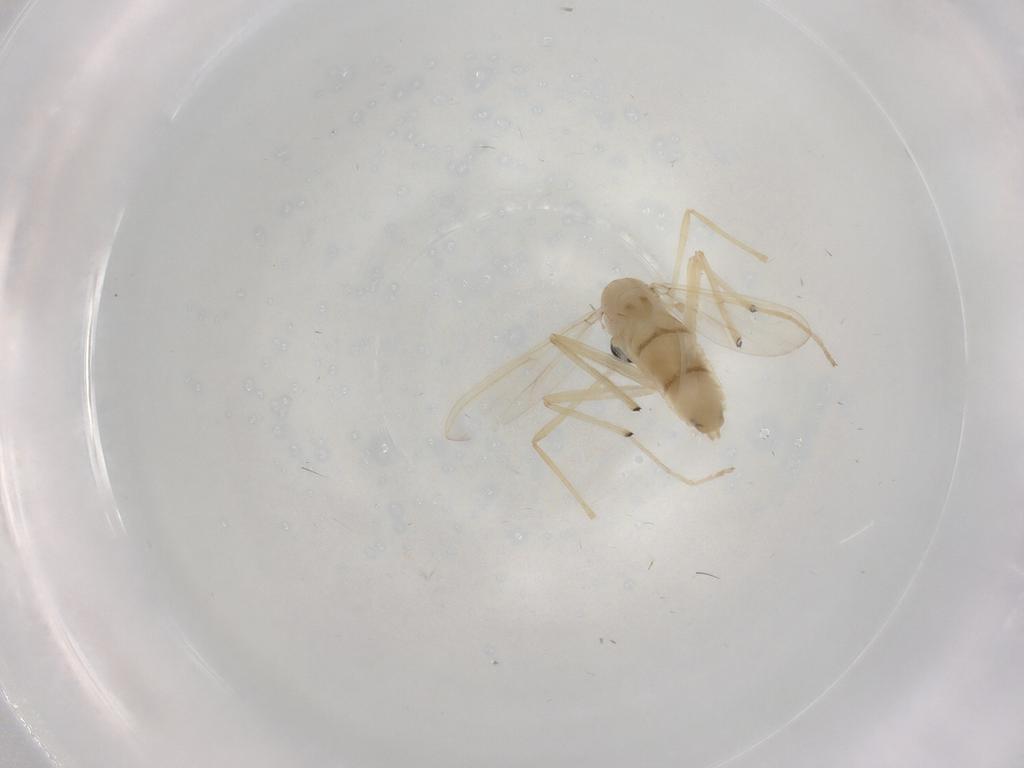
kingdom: Animalia
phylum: Arthropoda
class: Insecta
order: Diptera
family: Chironomidae
